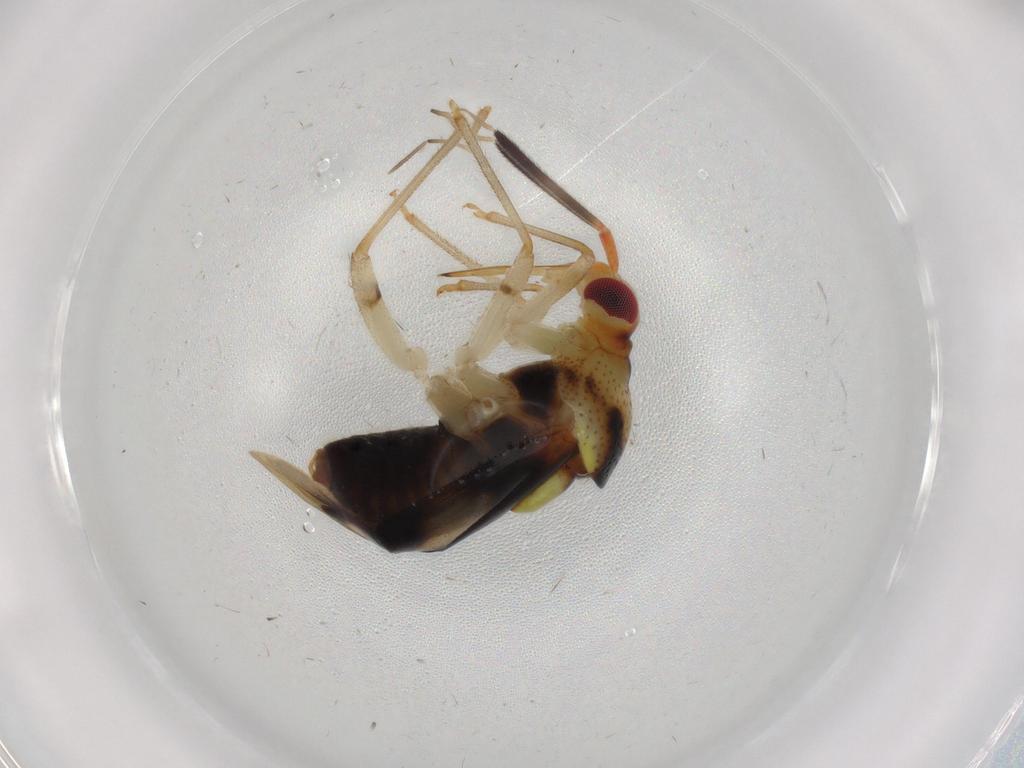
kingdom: Animalia
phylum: Arthropoda
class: Insecta
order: Hemiptera
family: Miridae
